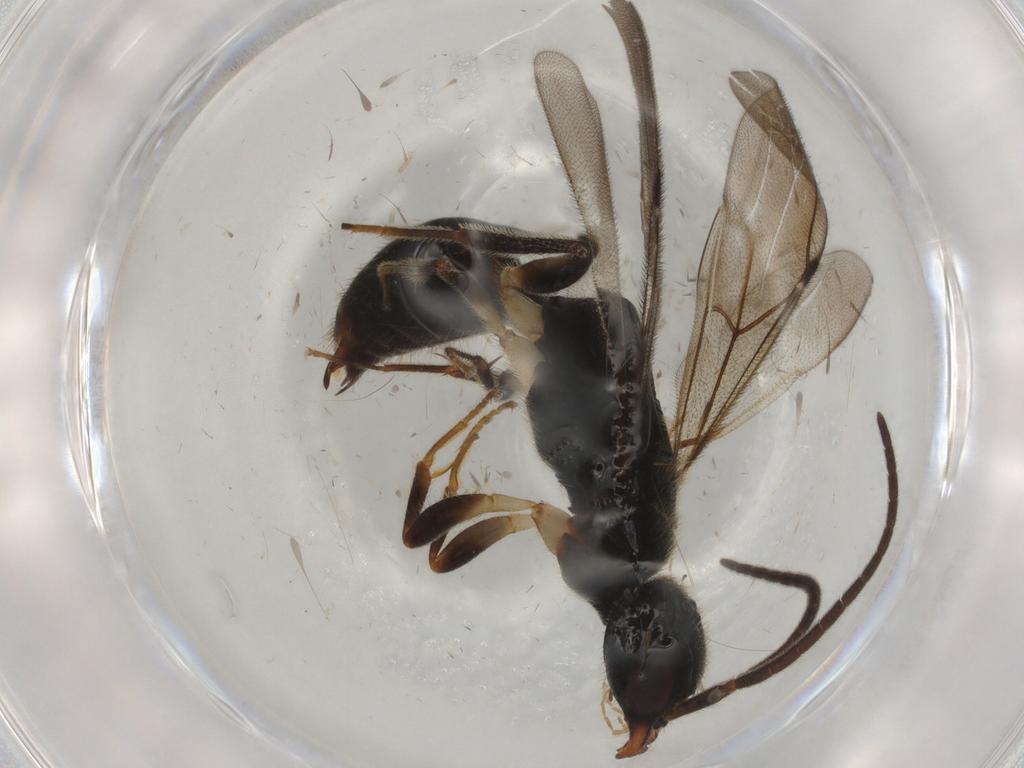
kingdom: Animalia
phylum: Arthropoda
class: Insecta
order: Hymenoptera
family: Bethylidae
